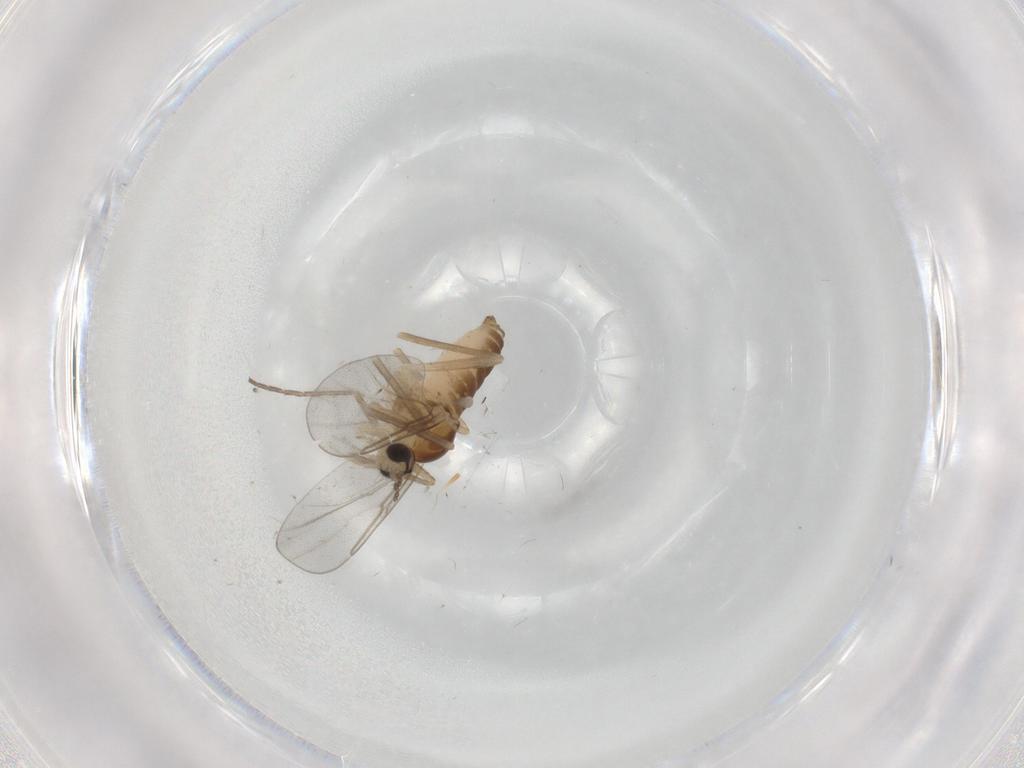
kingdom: Animalia
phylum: Arthropoda
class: Insecta
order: Diptera
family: Cecidomyiidae
